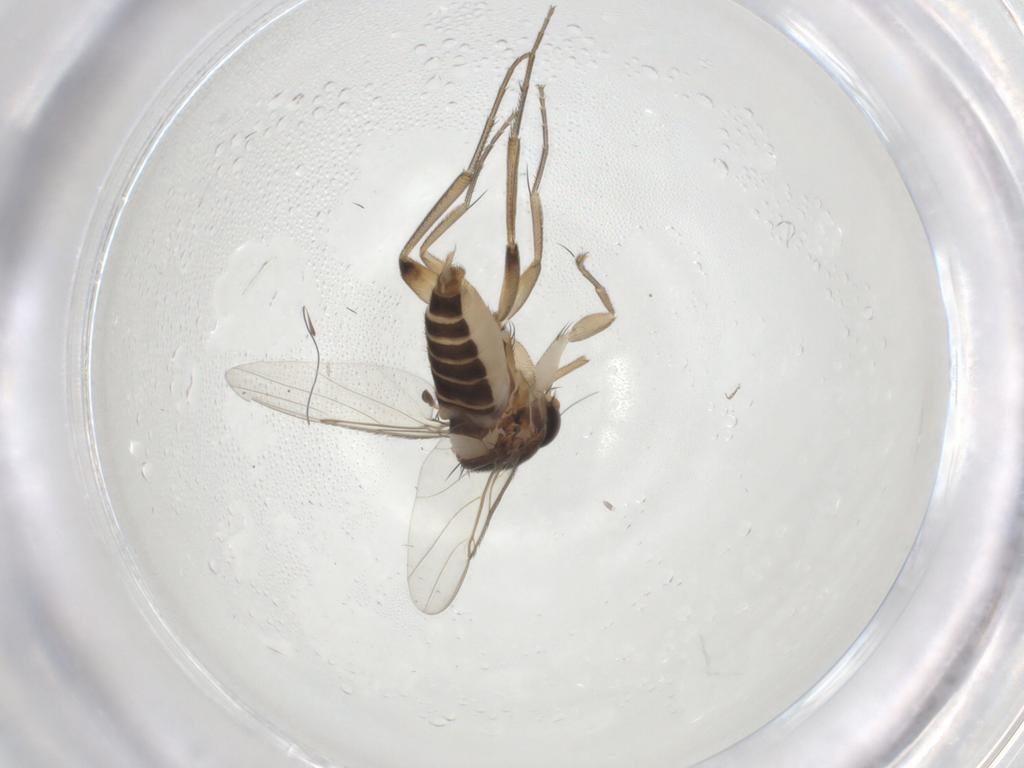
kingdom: Animalia
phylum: Arthropoda
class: Insecta
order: Diptera
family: Phoridae
